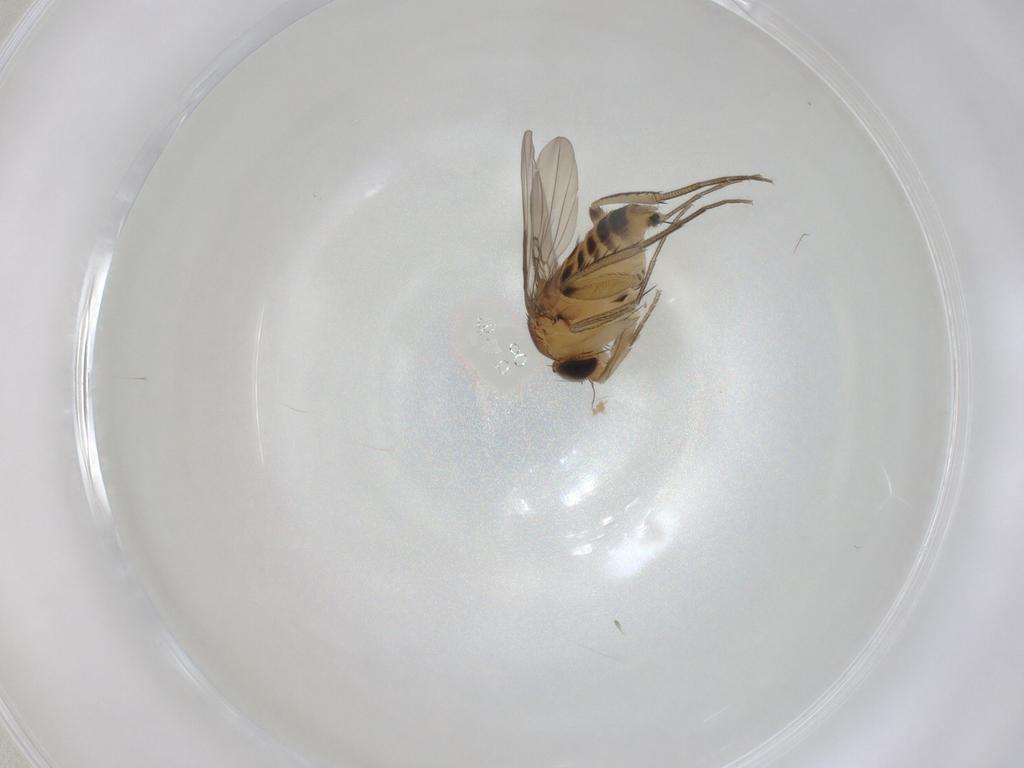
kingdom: Animalia
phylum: Arthropoda
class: Insecta
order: Diptera
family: Phoridae
